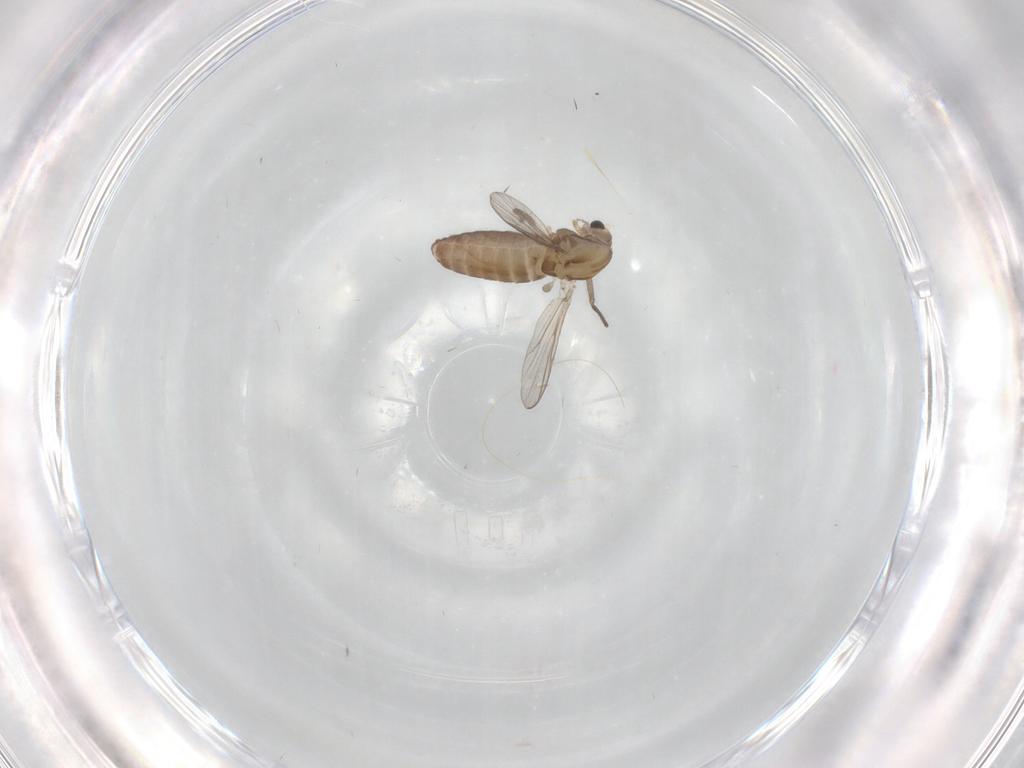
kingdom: Animalia
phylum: Arthropoda
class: Insecta
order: Diptera
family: Chironomidae
